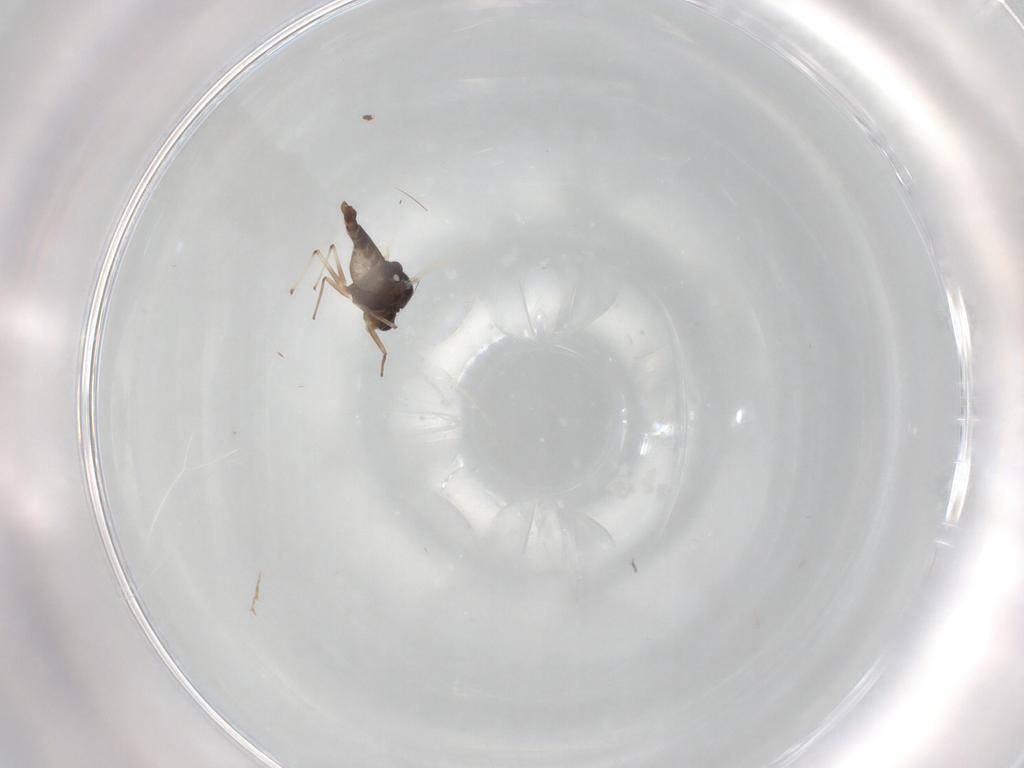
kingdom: Animalia
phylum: Arthropoda
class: Insecta
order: Diptera
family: Chironomidae
